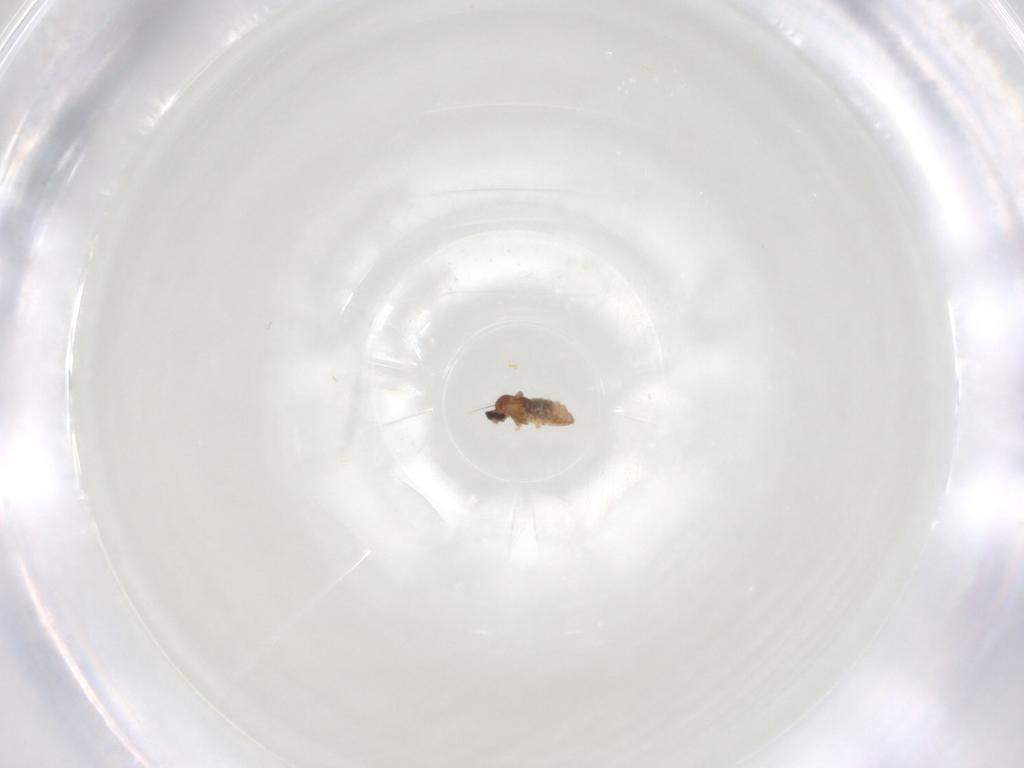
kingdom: Animalia
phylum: Arthropoda
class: Insecta
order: Diptera
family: Cecidomyiidae
